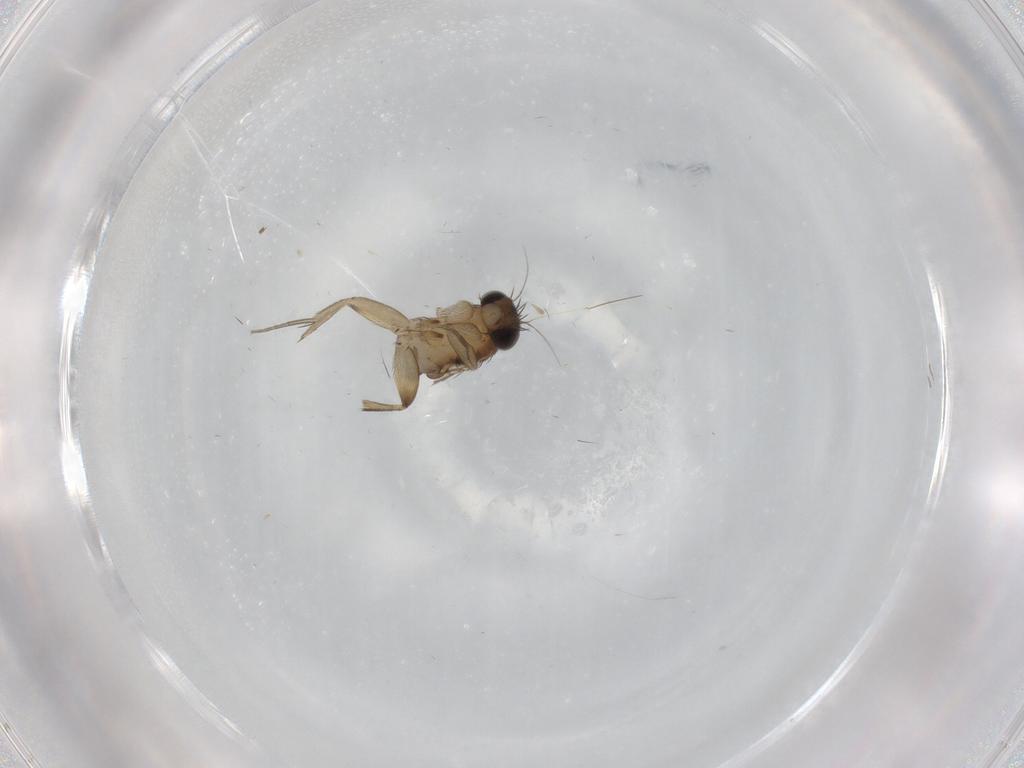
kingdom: Animalia
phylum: Arthropoda
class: Insecta
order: Diptera
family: Phoridae
